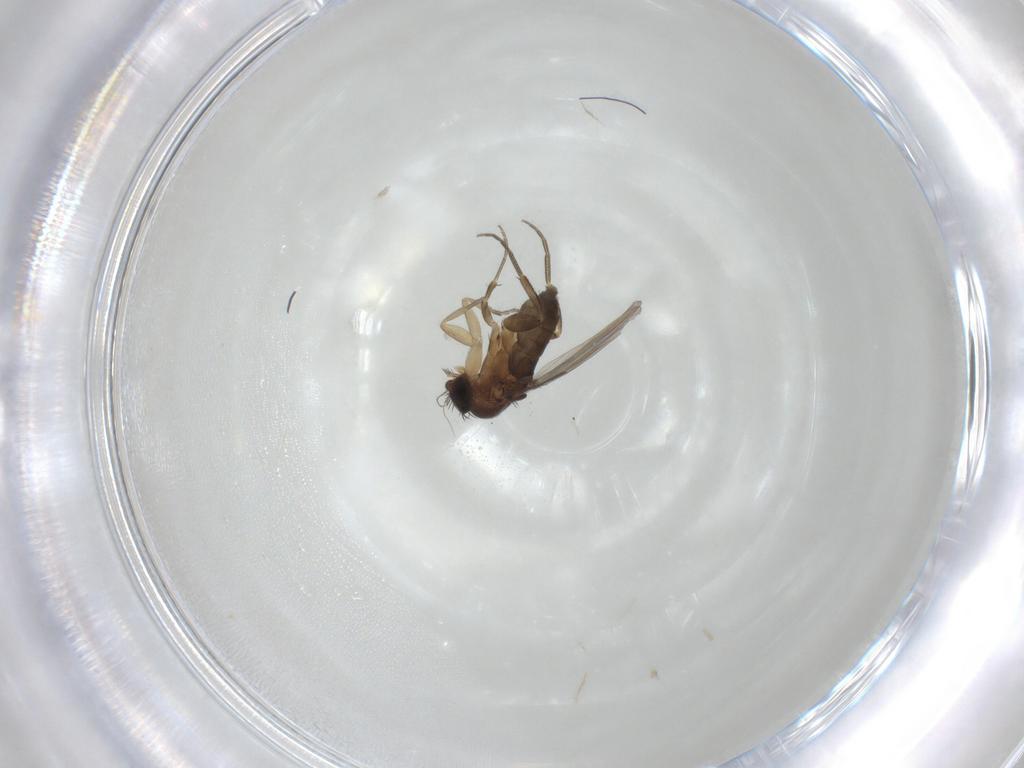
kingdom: Animalia
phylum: Arthropoda
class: Insecta
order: Diptera
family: Phoridae
